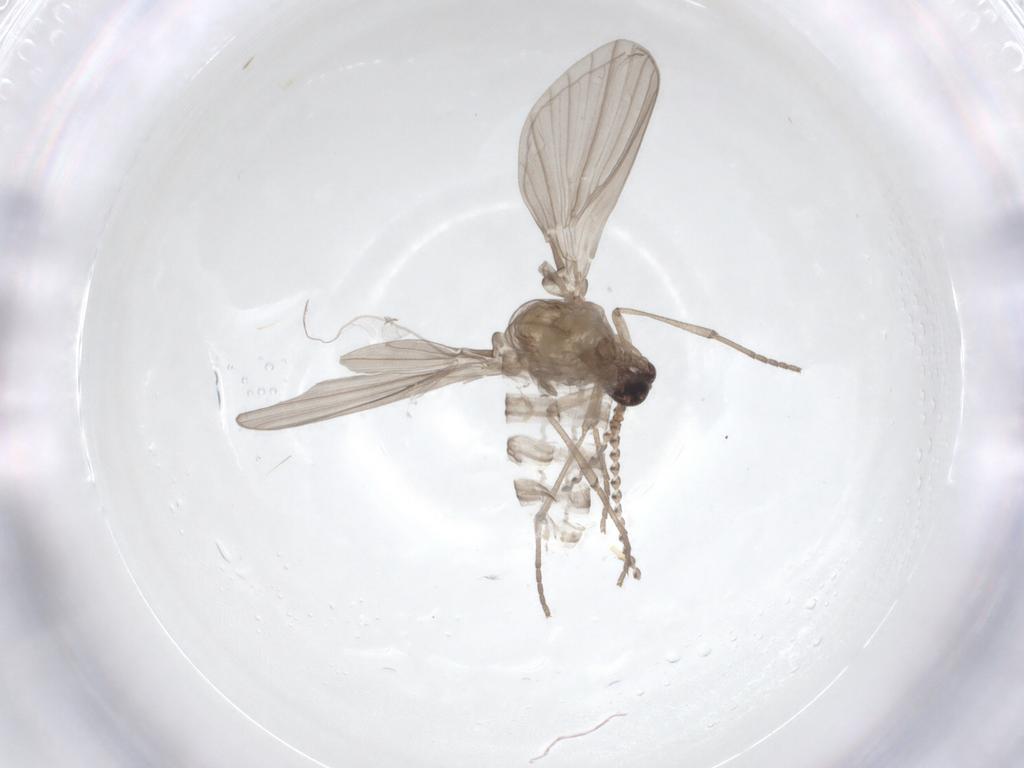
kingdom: Animalia
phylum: Arthropoda
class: Insecta
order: Diptera
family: Psychodidae
